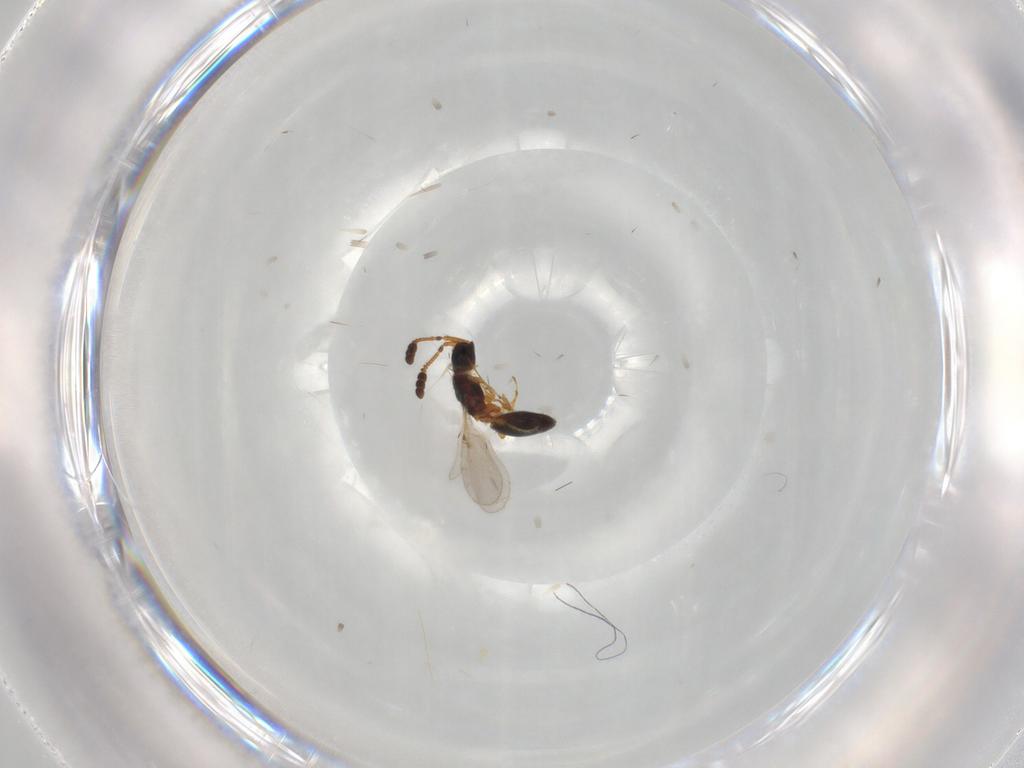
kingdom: Animalia
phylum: Arthropoda
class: Insecta
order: Hymenoptera
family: Diapriidae
